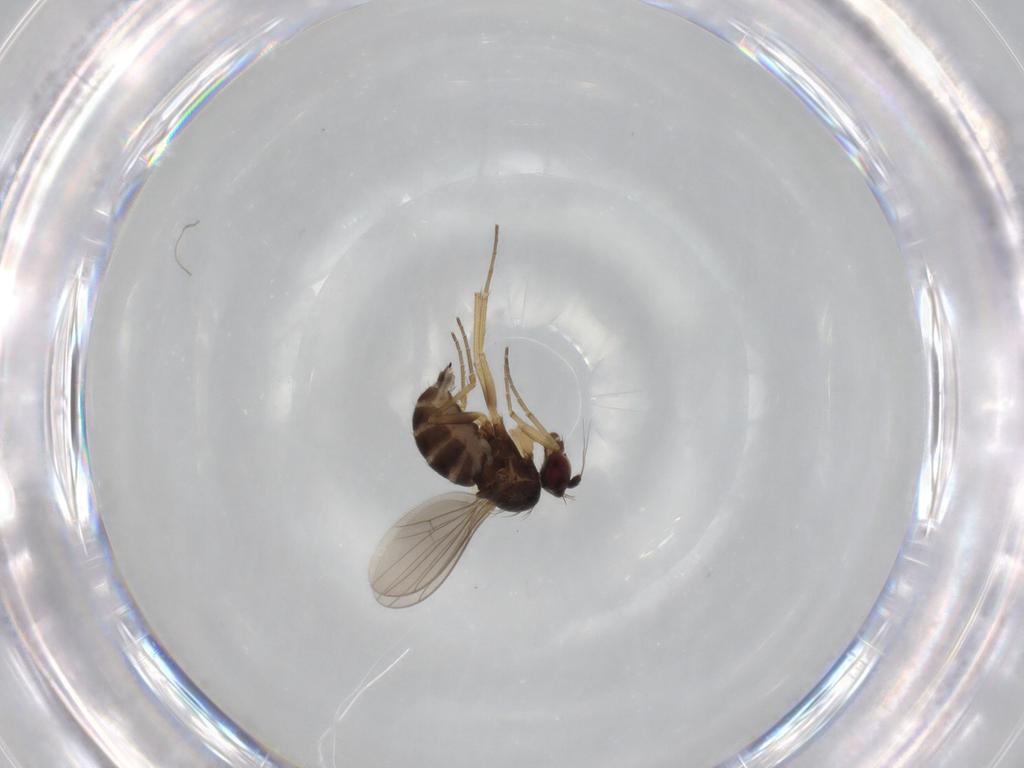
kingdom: Animalia
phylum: Arthropoda
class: Insecta
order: Diptera
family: Dolichopodidae
